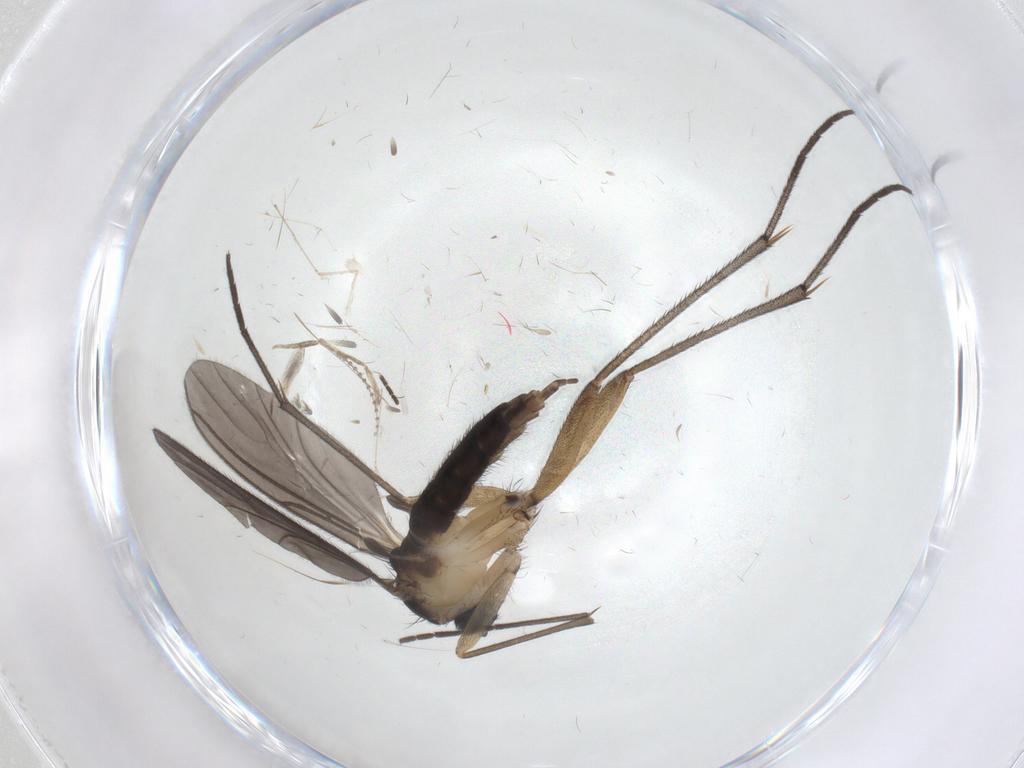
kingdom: Animalia
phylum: Arthropoda
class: Insecta
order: Diptera
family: Sciaridae
